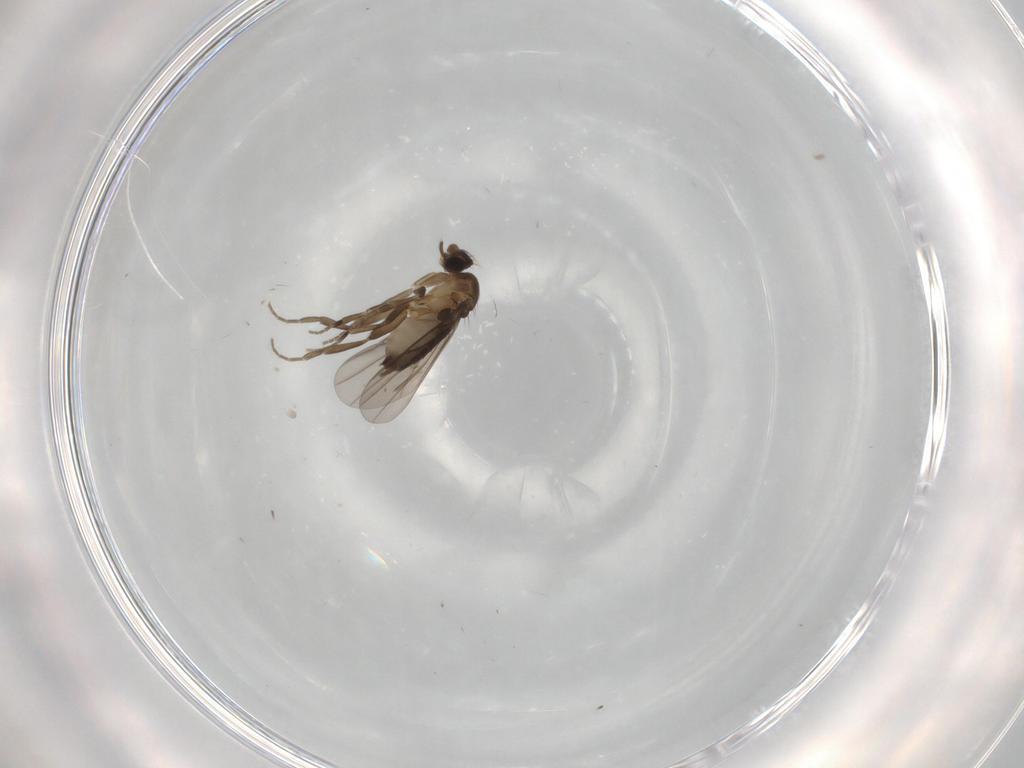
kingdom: Animalia
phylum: Arthropoda
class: Insecta
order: Diptera
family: Phoridae
